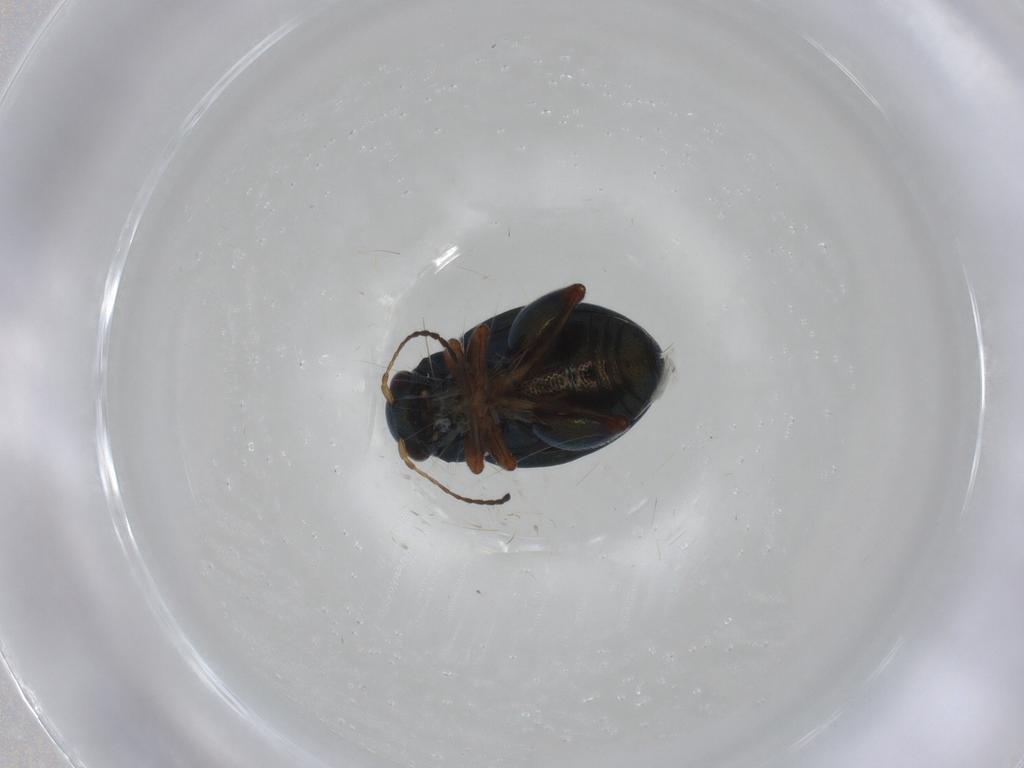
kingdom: Animalia
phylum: Arthropoda
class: Insecta
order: Coleoptera
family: Chrysomelidae
